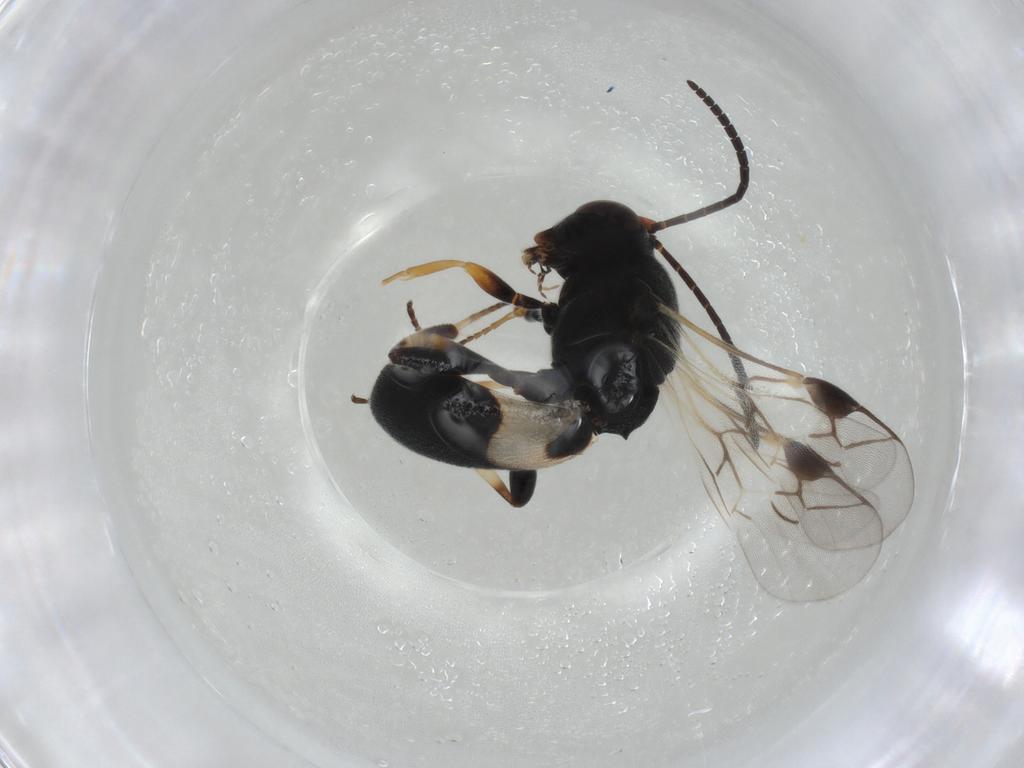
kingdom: Animalia
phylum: Arthropoda
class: Insecta
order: Hymenoptera
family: Braconidae
